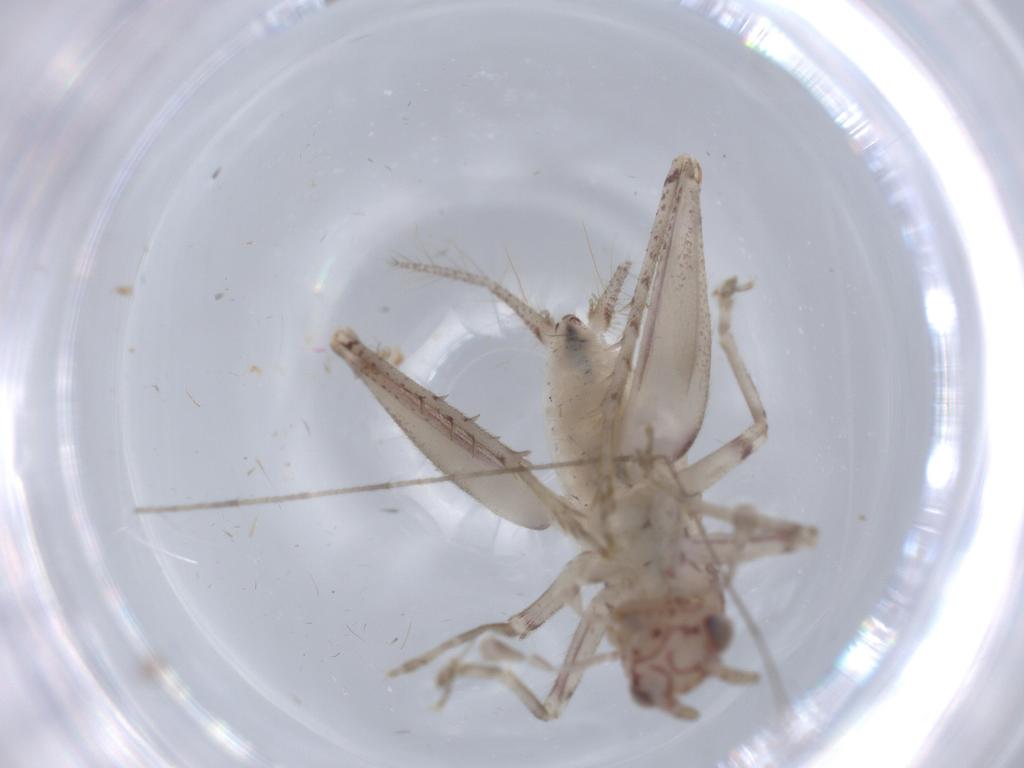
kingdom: Animalia
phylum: Arthropoda
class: Insecta
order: Orthoptera
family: Trigonidiidae
